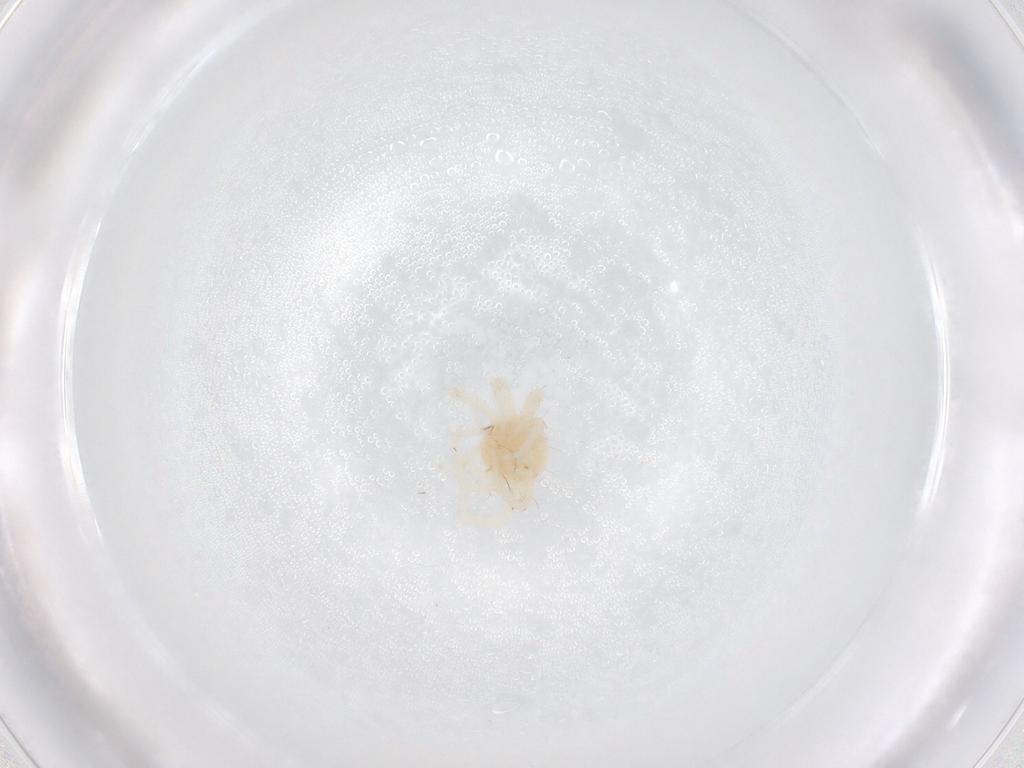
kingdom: Animalia
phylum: Arthropoda
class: Arachnida
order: Trombidiformes
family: Anystidae
